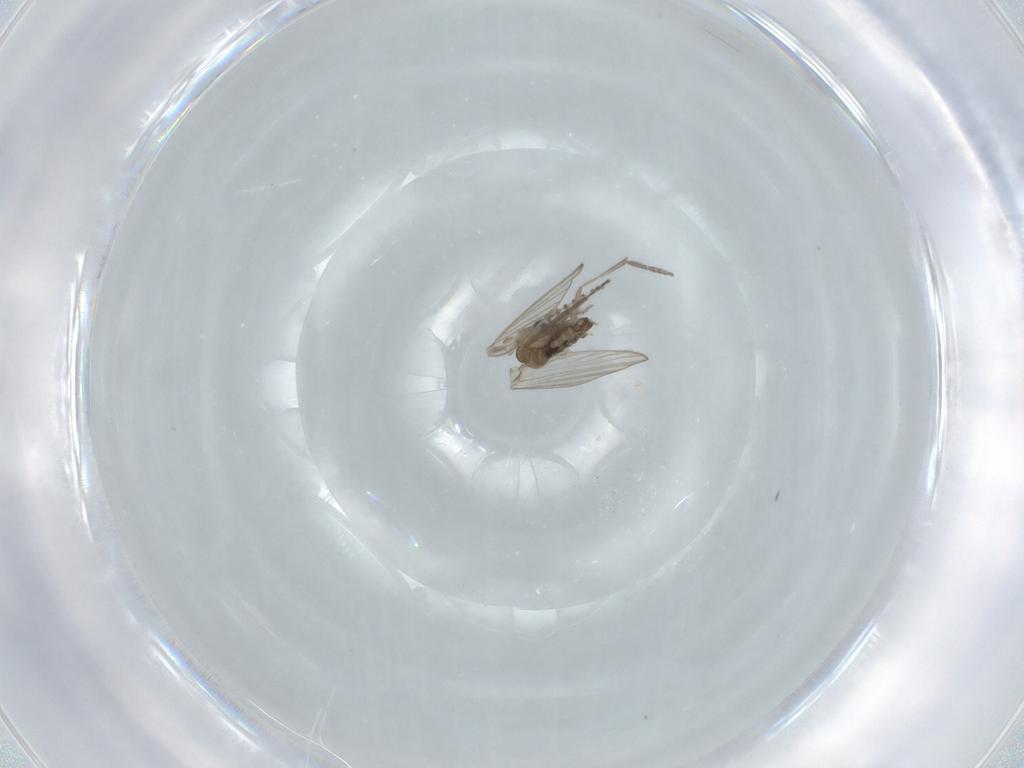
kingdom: Animalia
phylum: Arthropoda
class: Insecta
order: Diptera
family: Psychodidae
